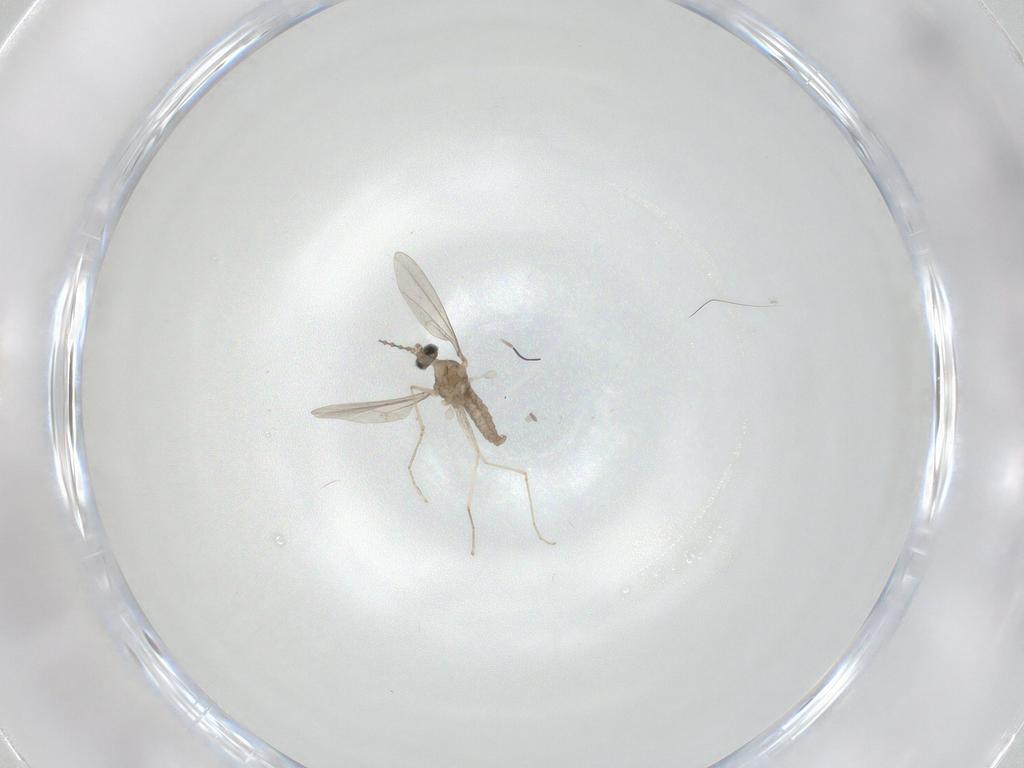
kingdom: Animalia
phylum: Arthropoda
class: Insecta
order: Diptera
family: Cecidomyiidae
